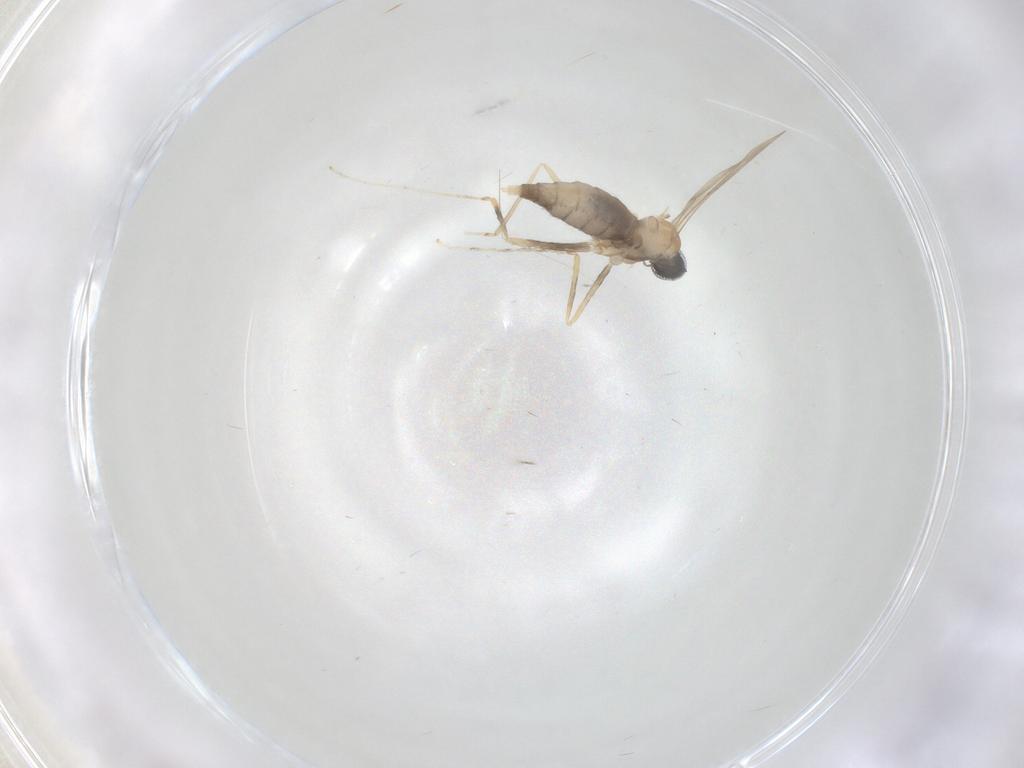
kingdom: Animalia
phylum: Arthropoda
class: Insecta
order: Diptera
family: Cecidomyiidae
